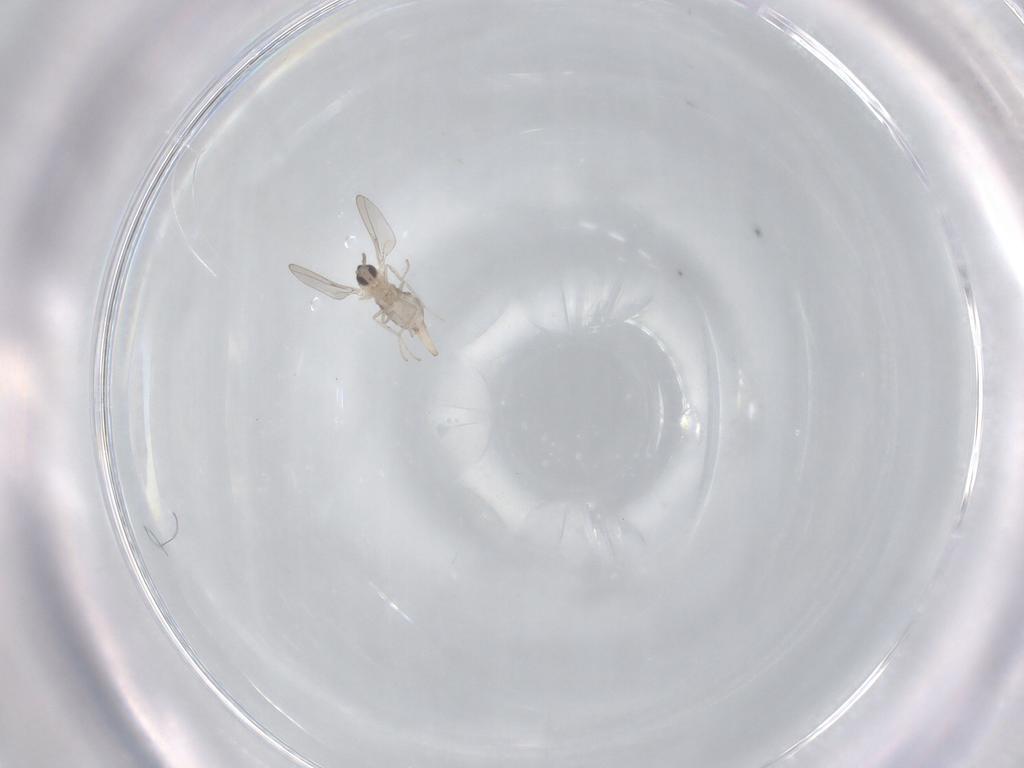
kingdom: Animalia
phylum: Arthropoda
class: Insecta
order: Diptera
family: Cecidomyiidae
